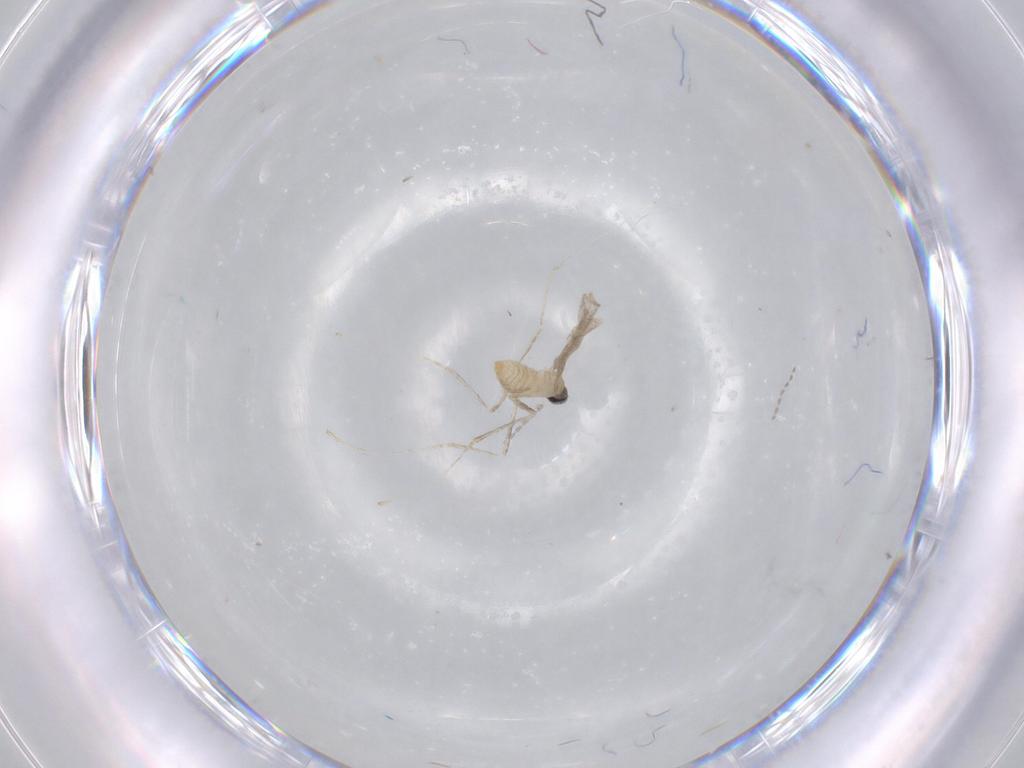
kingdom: Animalia
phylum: Arthropoda
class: Insecta
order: Diptera
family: Cecidomyiidae
